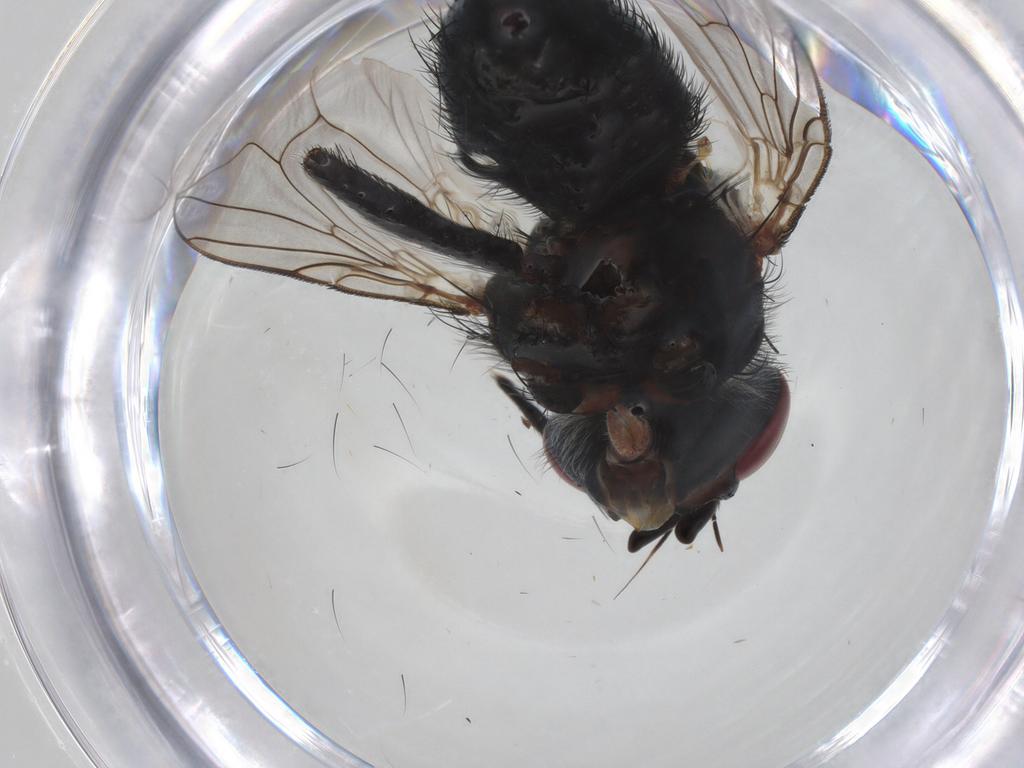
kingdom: Animalia
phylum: Arthropoda
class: Insecta
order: Diptera
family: Tachinidae
